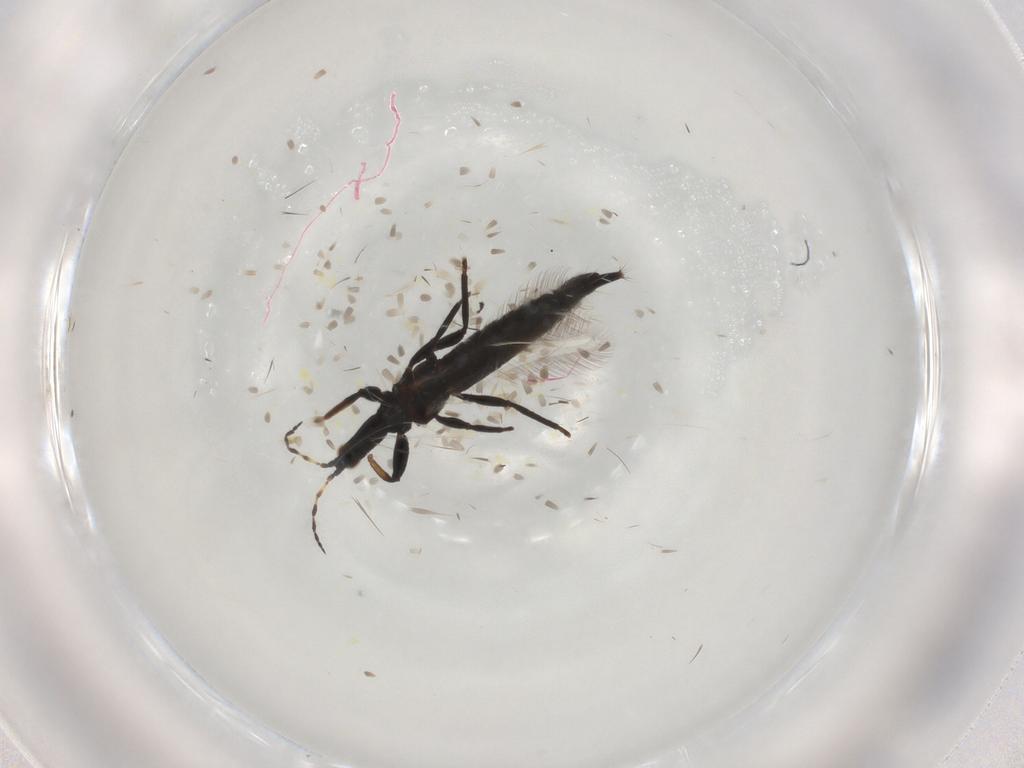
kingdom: Animalia
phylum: Arthropoda
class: Insecta
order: Thysanoptera
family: Phlaeothripidae
